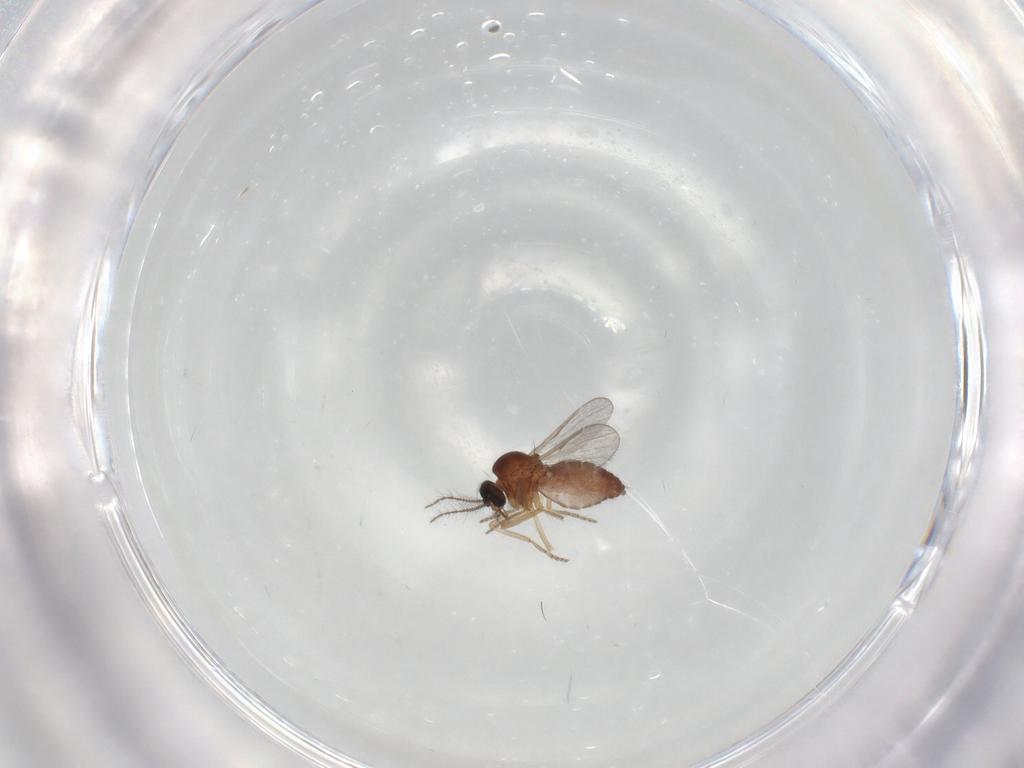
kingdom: Animalia
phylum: Arthropoda
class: Insecta
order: Diptera
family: Ceratopogonidae
